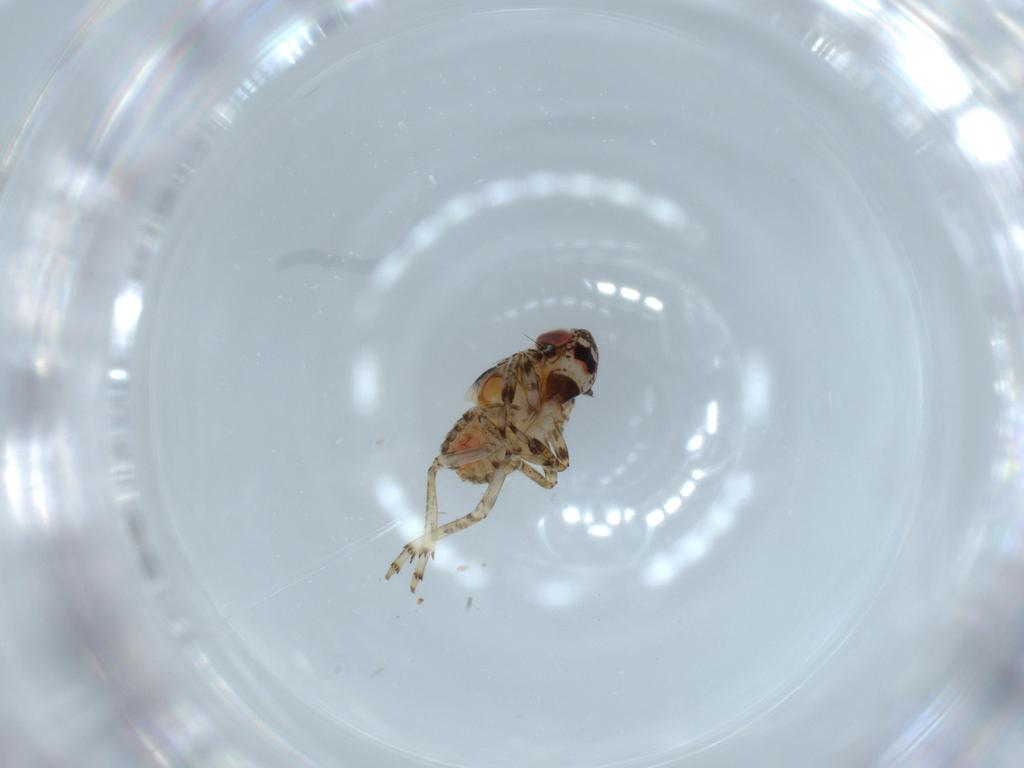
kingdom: Animalia
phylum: Arthropoda
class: Insecta
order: Hemiptera
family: Issidae
